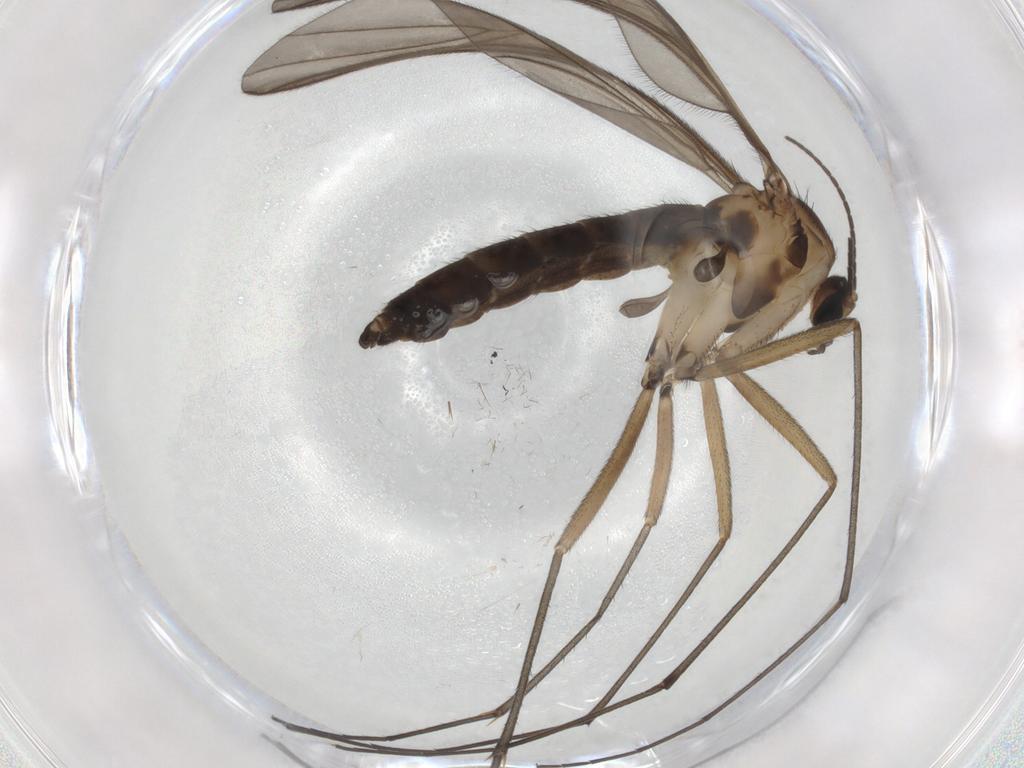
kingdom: Animalia
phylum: Arthropoda
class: Insecta
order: Diptera
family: Sciaridae
